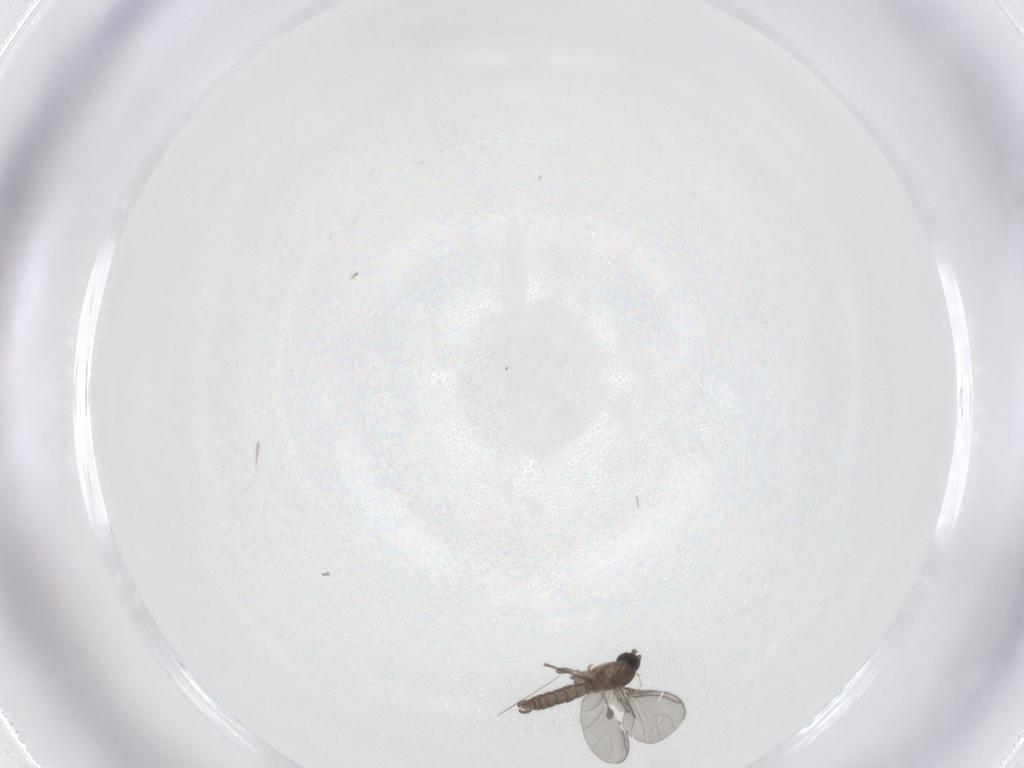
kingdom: Animalia
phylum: Arthropoda
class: Insecta
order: Diptera
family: Sciaridae
